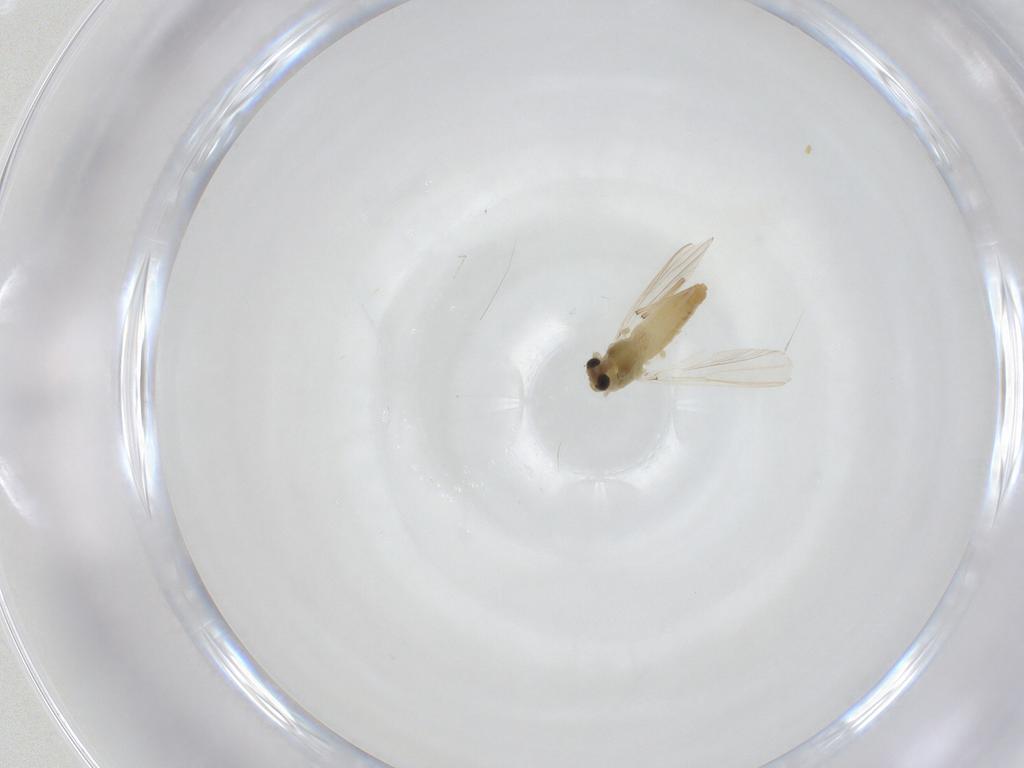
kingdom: Animalia
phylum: Arthropoda
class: Insecta
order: Diptera
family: Chironomidae
